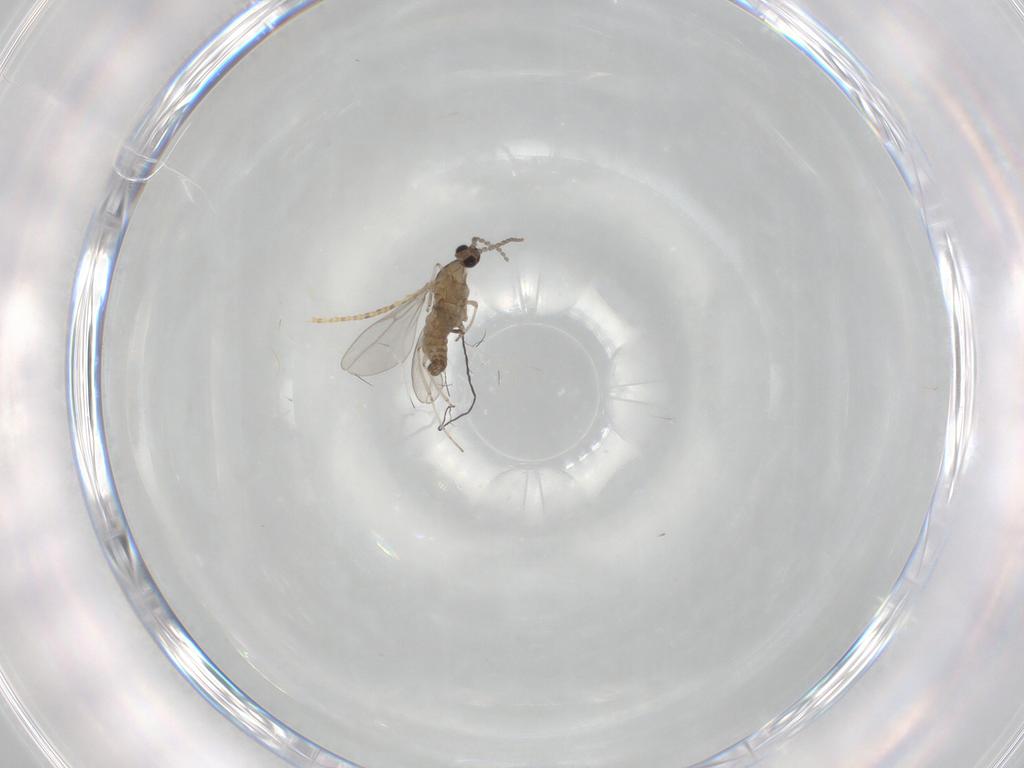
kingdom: Animalia
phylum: Arthropoda
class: Insecta
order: Diptera
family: Cecidomyiidae
